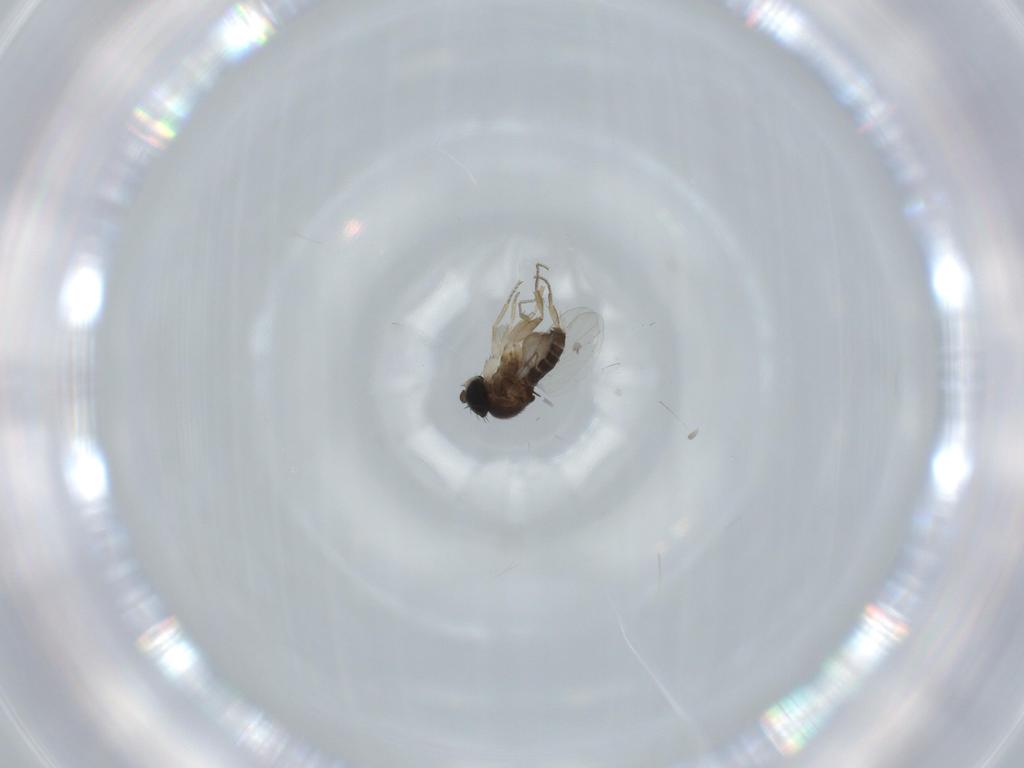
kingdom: Animalia
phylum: Arthropoda
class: Insecta
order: Diptera
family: Phoridae
